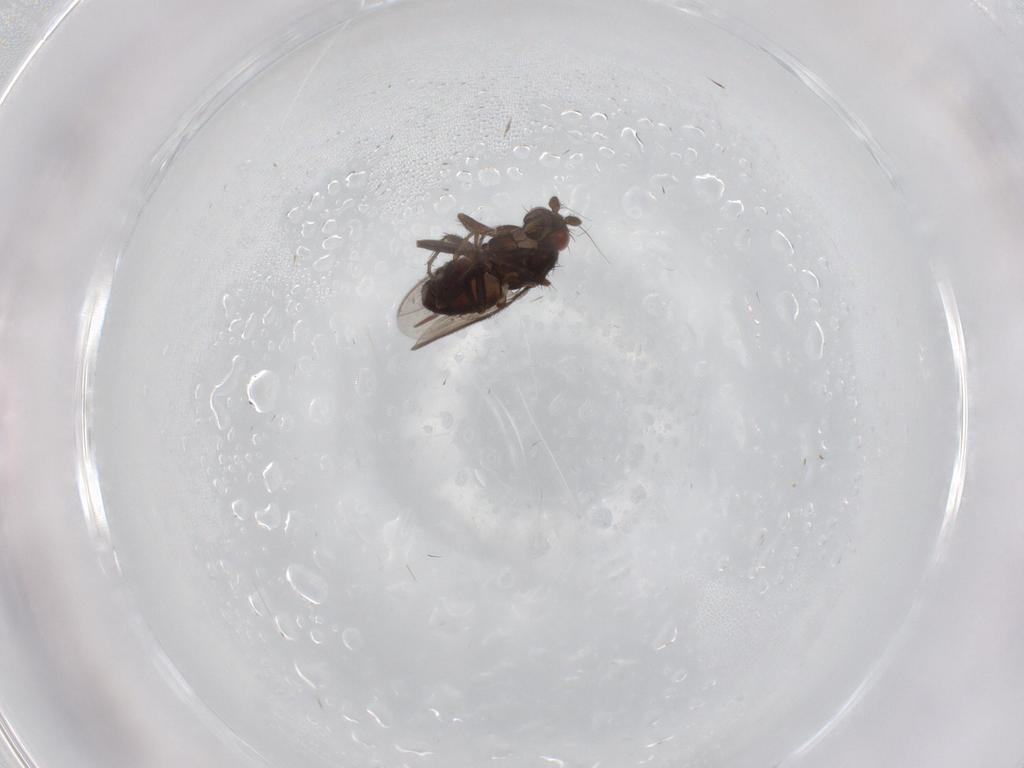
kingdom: Animalia
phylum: Arthropoda
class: Insecta
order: Diptera
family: Sphaeroceridae
